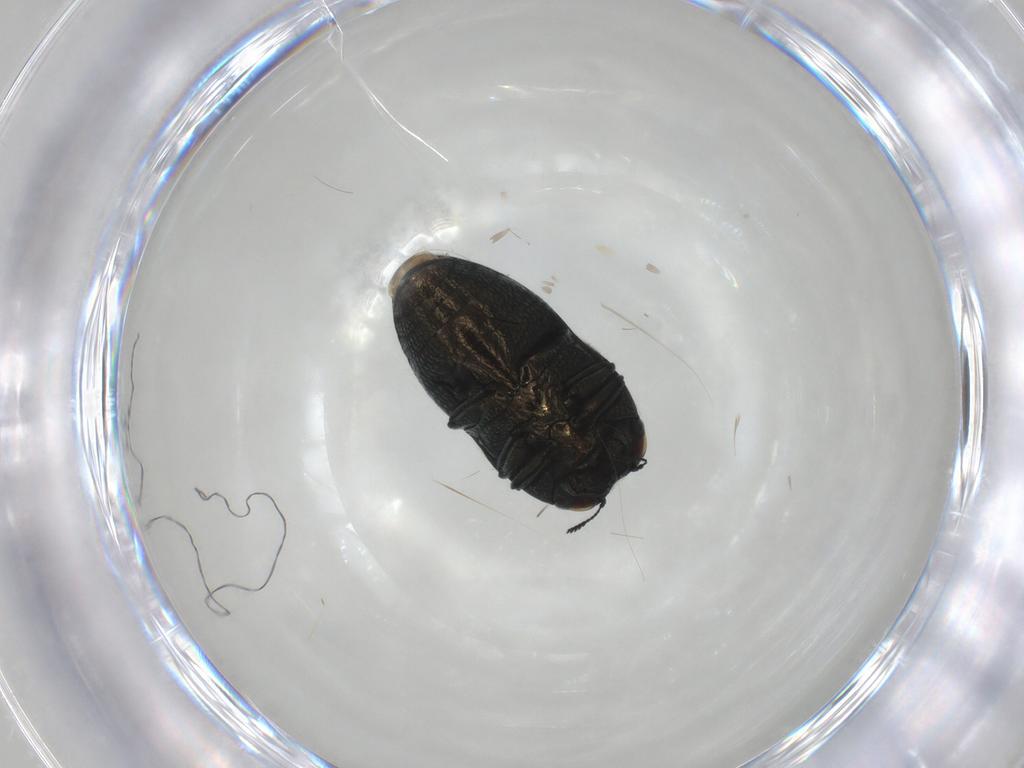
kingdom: Animalia
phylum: Arthropoda
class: Insecta
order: Coleoptera
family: Buprestidae
